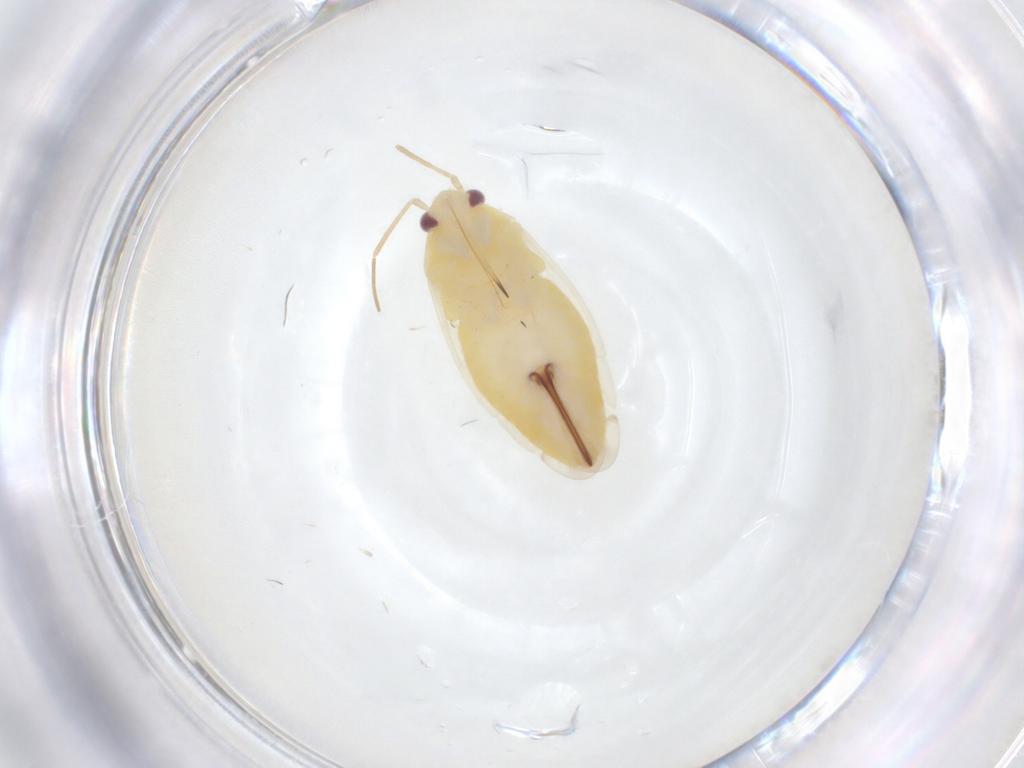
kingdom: Animalia
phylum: Arthropoda
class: Insecta
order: Hemiptera
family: Miridae
